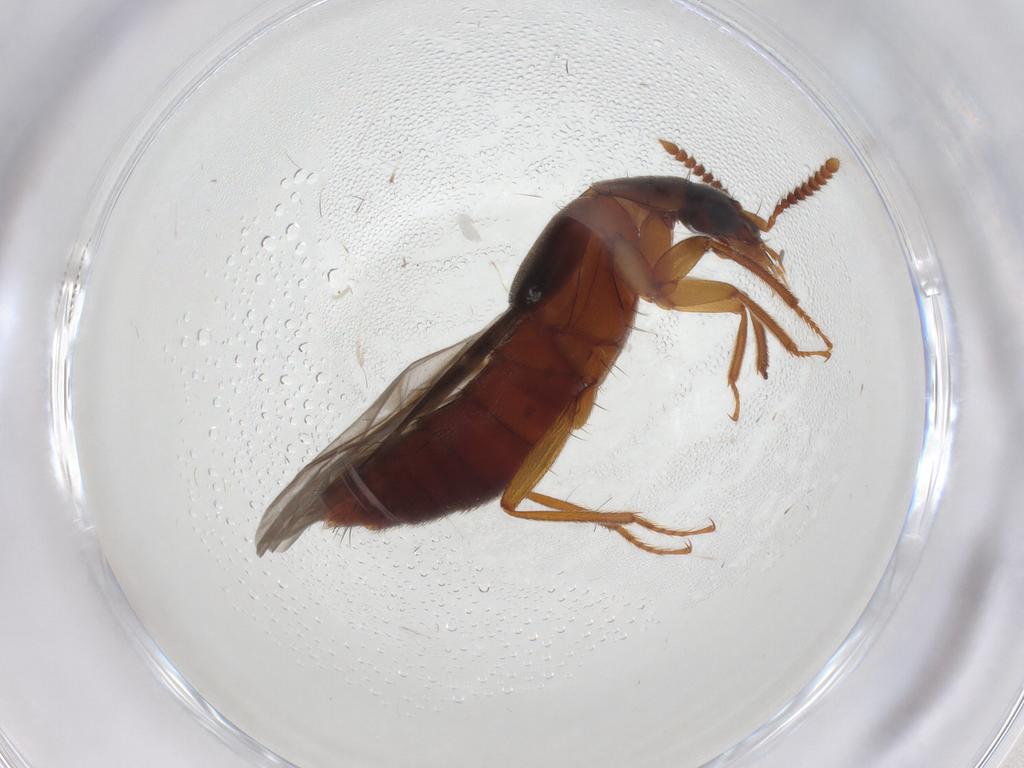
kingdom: Animalia
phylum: Arthropoda
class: Insecta
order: Coleoptera
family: Staphylinidae
